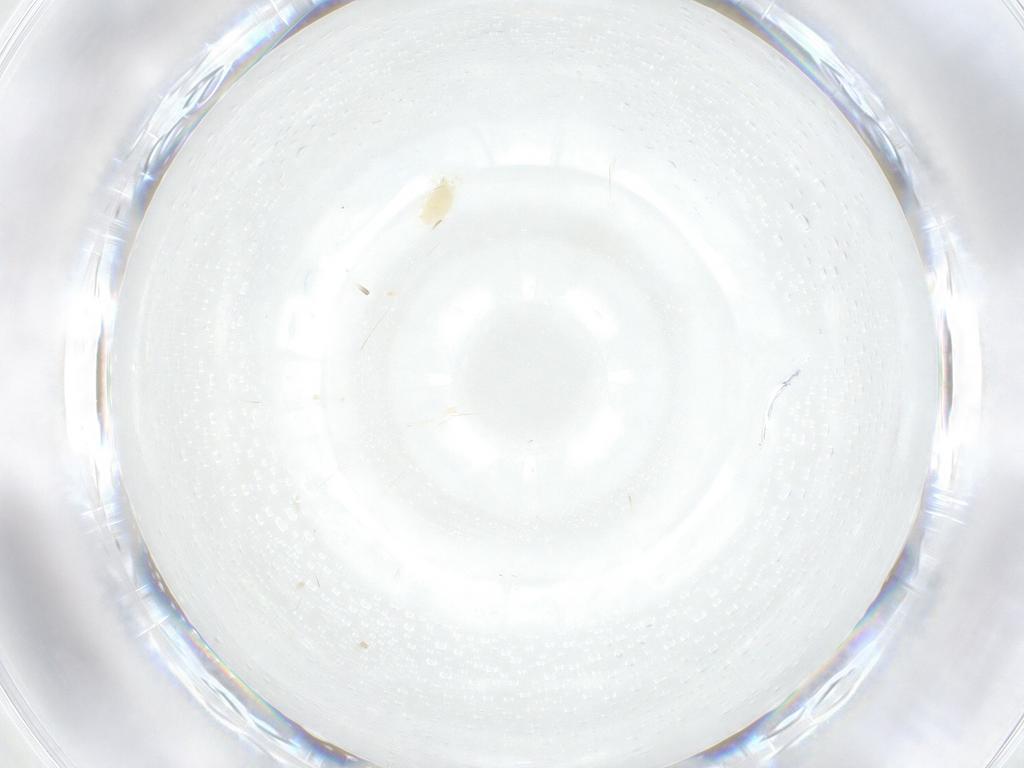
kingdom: Animalia
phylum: Arthropoda
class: Arachnida
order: Trombidiformes
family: Tetranychidae
